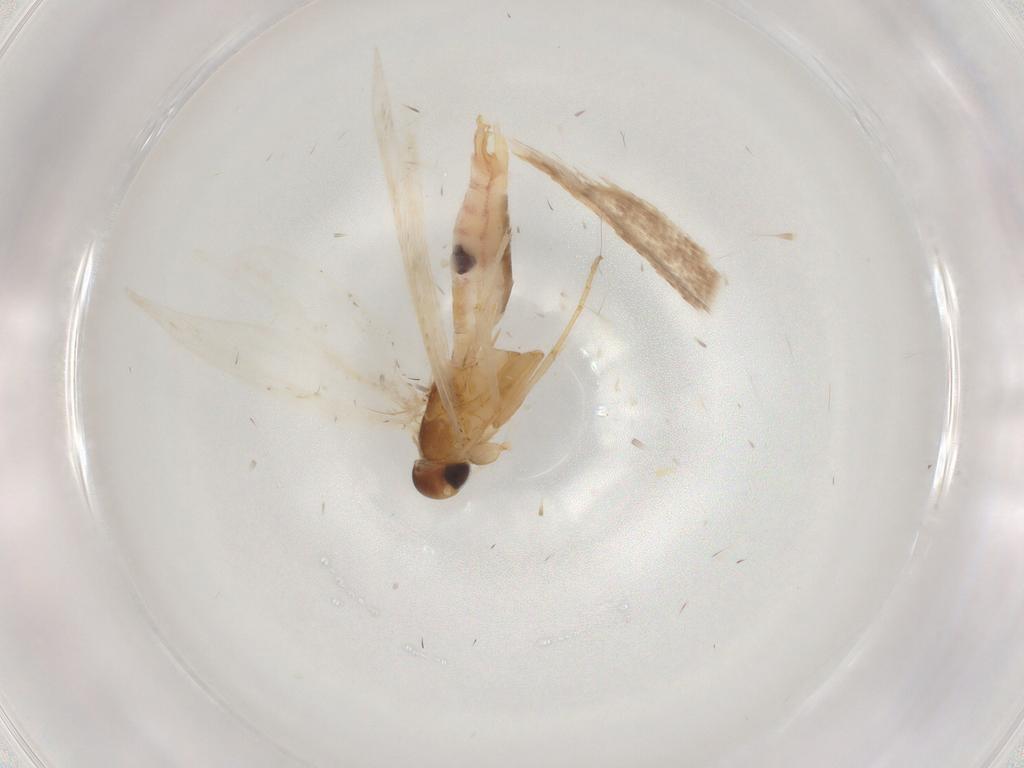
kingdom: Animalia
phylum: Arthropoda
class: Insecta
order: Lepidoptera
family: Gelechiidae
